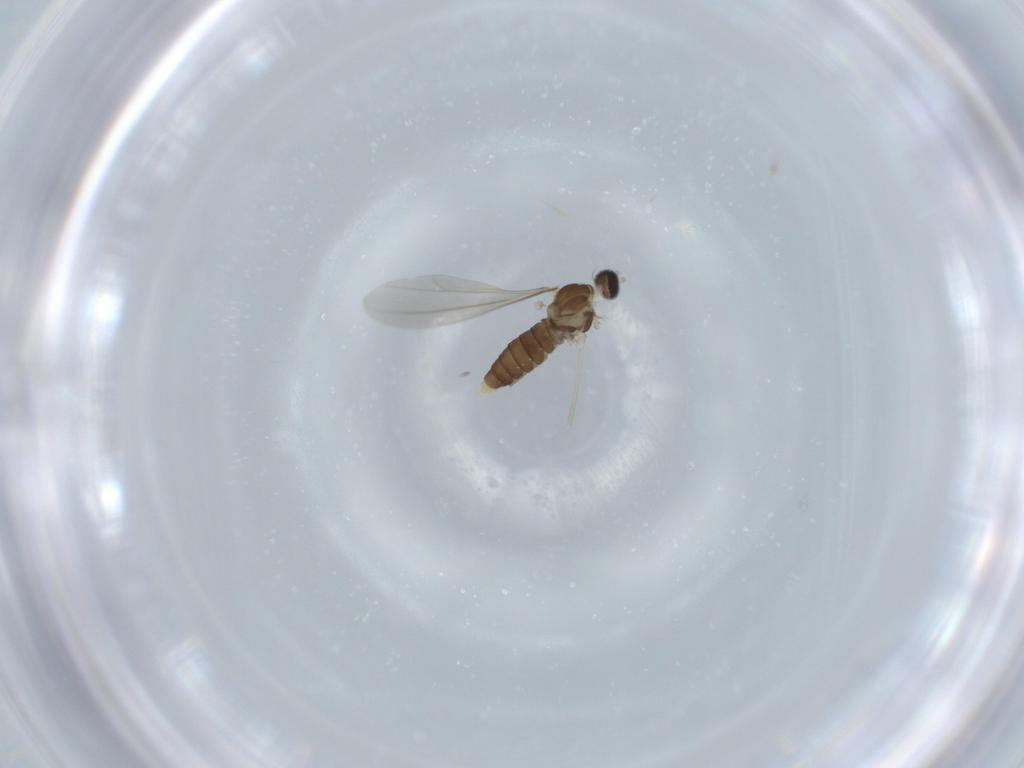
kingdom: Animalia
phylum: Arthropoda
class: Insecta
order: Diptera
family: Cecidomyiidae
